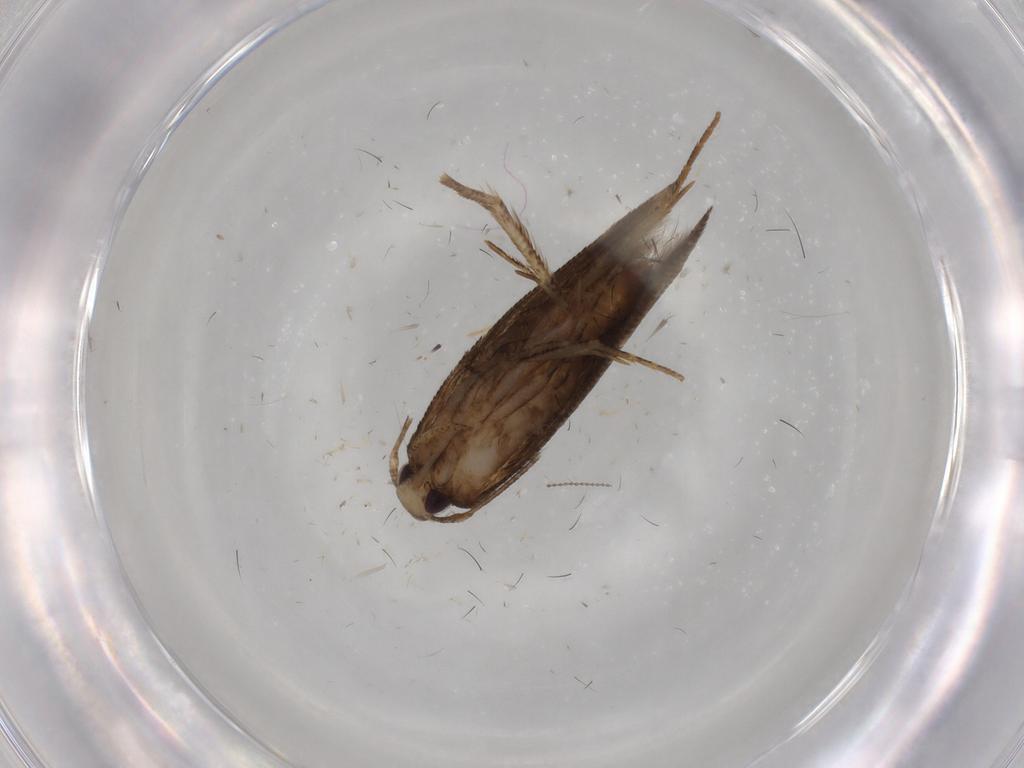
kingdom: Animalia
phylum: Arthropoda
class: Insecta
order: Lepidoptera
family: Cosmopterigidae
